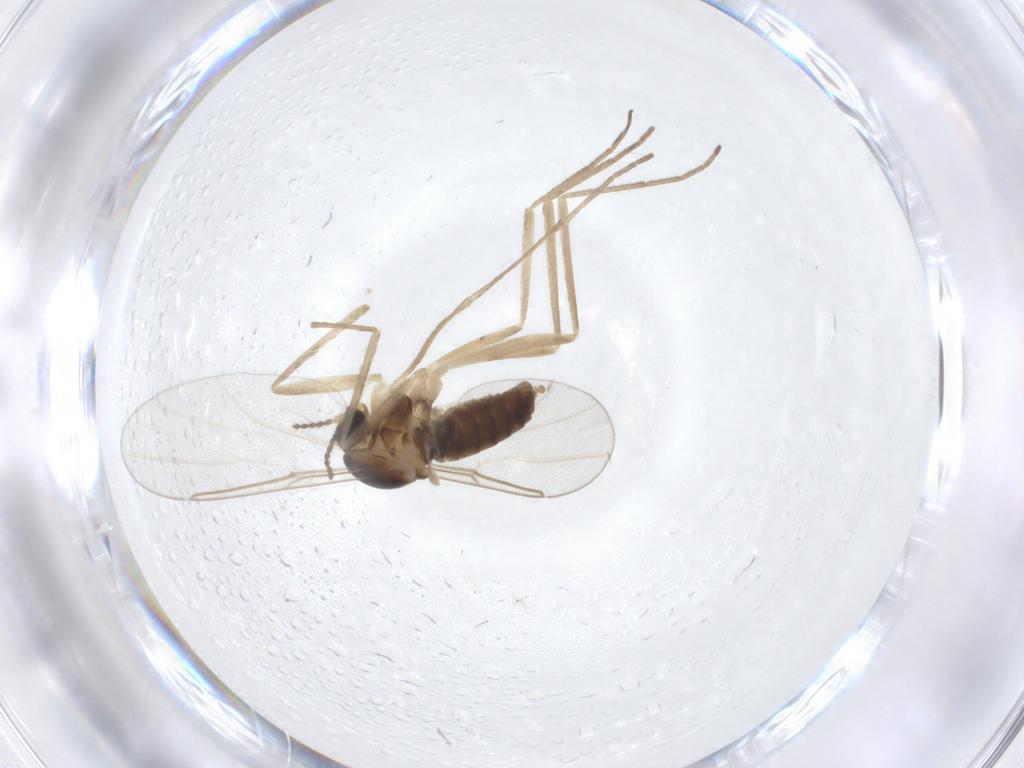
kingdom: Animalia
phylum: Arthropoda
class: Insecta
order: Diptera
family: Cecidomyiidae
